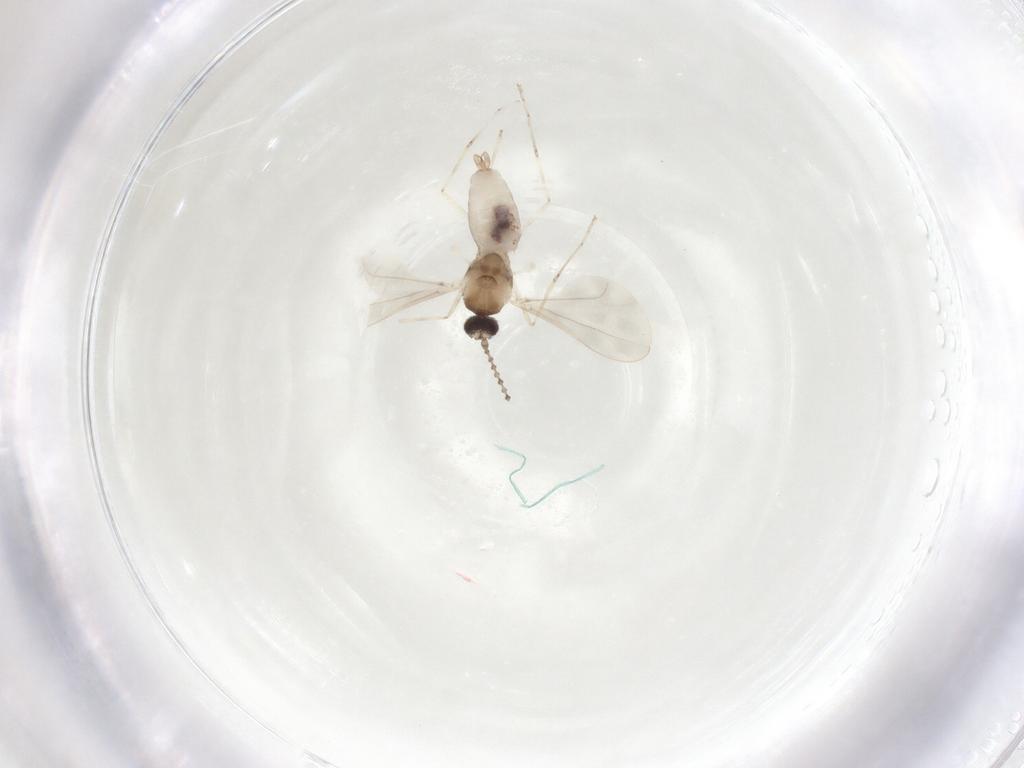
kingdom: Animalia
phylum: Arthropoda
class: Insecta
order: Diptera
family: Cecidomyiidae
